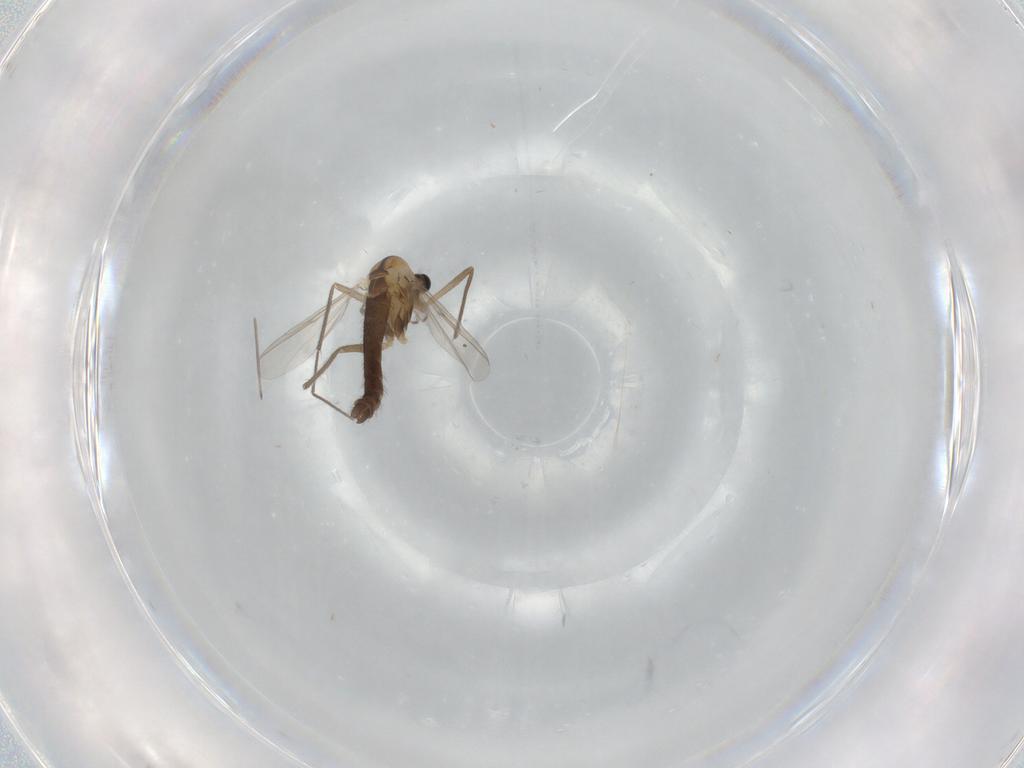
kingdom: Animalia
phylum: Arthropoda
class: Insecta
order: Diptera
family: Chironomidae
